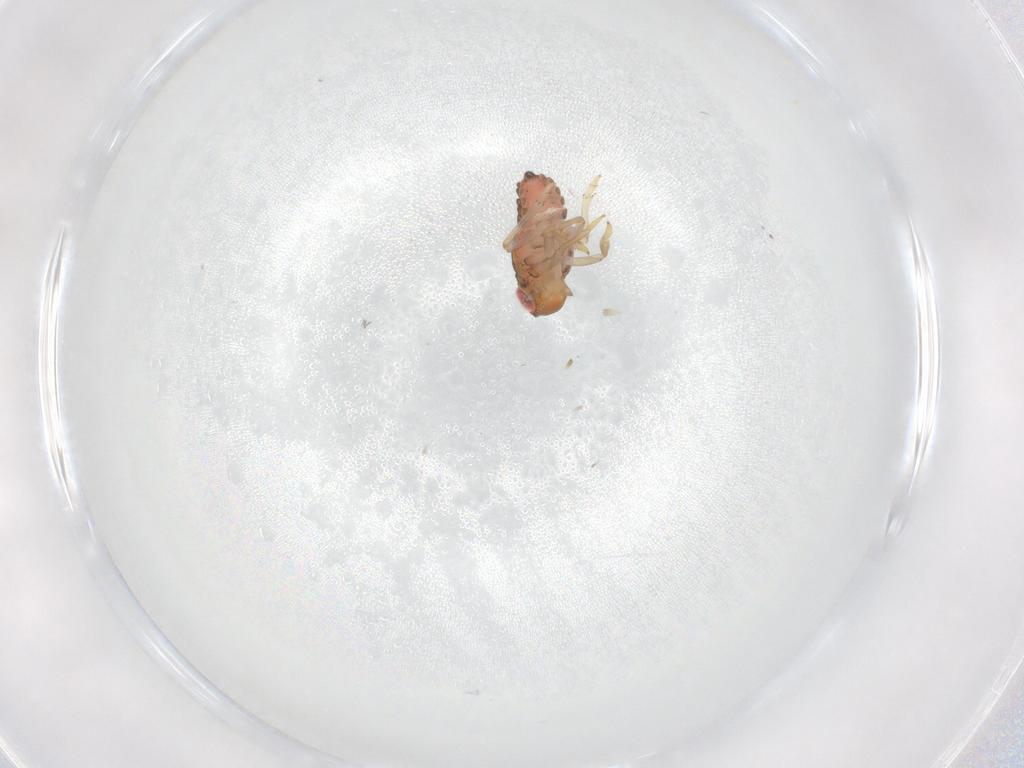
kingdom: Animalia
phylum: Arthropoda
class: Insecta
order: Hemiptera
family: Issidae
